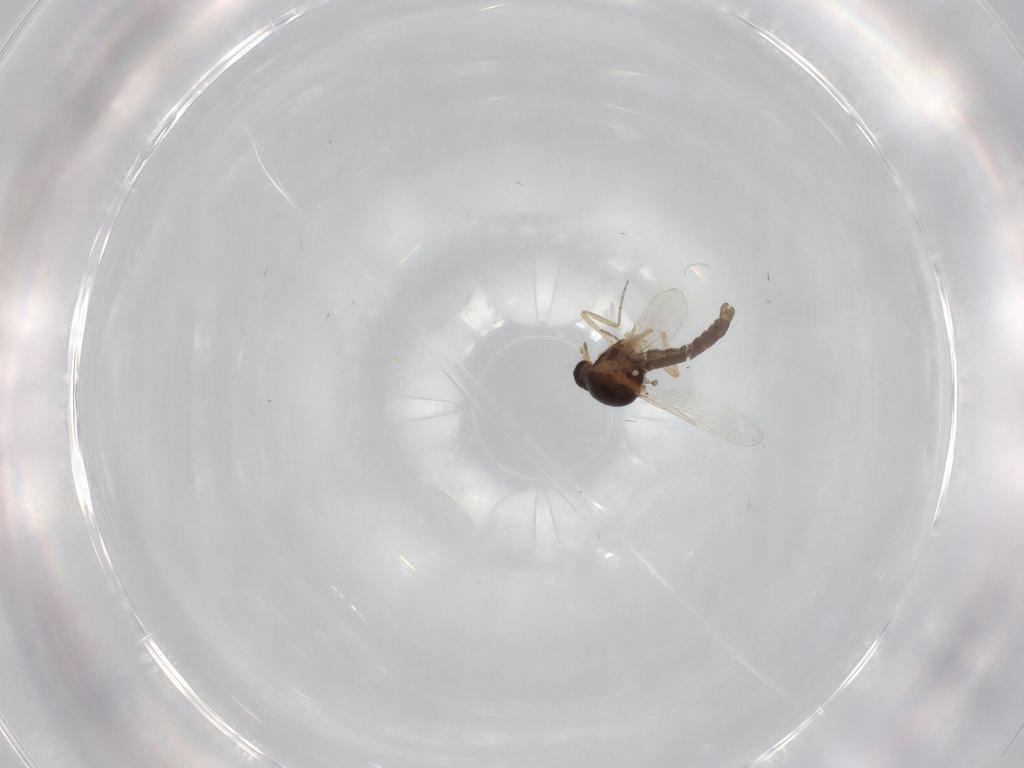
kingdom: Animalia
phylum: Arthropoda
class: Insecta
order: Diptera
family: Ceratopogonidae
